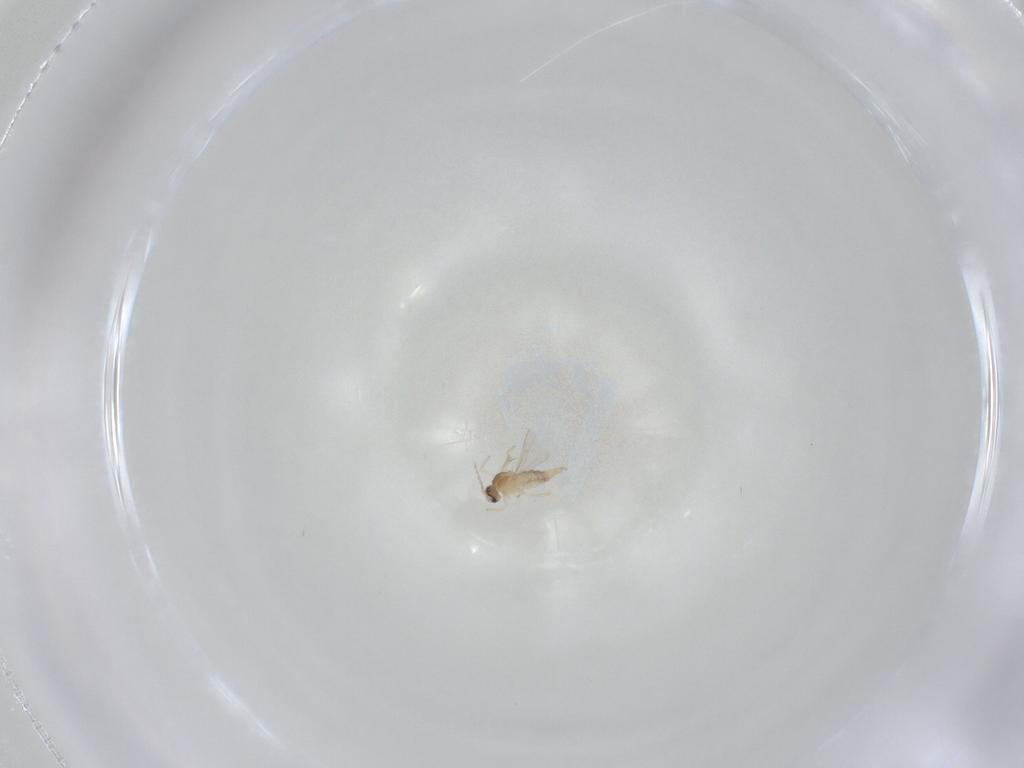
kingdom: Animalia
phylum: Arthropoda
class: Insecta
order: Diptera
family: Cecidomyiidae
